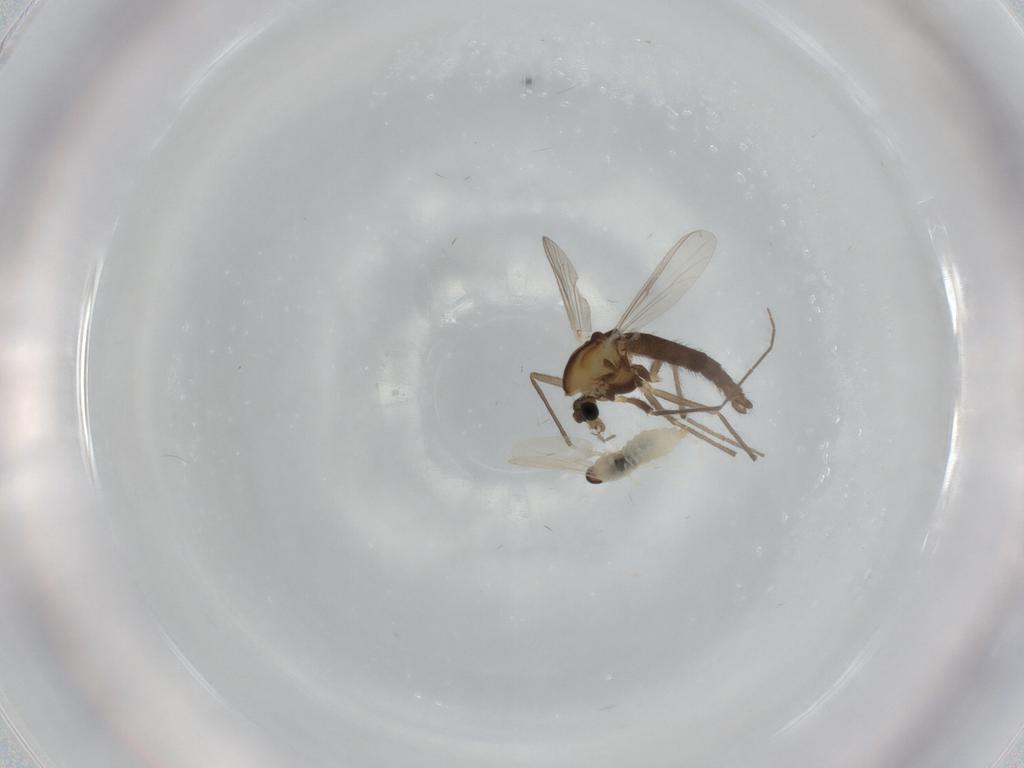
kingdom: Animalia
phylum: Arthropoda
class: Insecta
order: Diptera
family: Chironomidae
